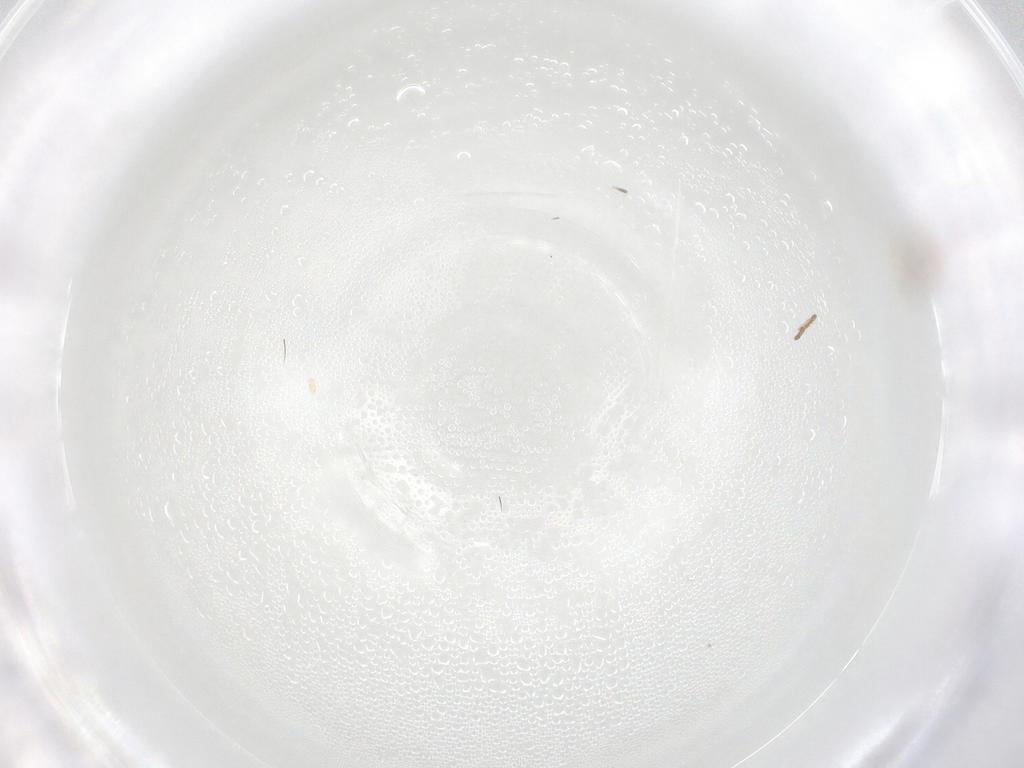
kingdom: Animalia
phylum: Arthropoda
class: Insecta
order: Thysanoptera
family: Thripidae
